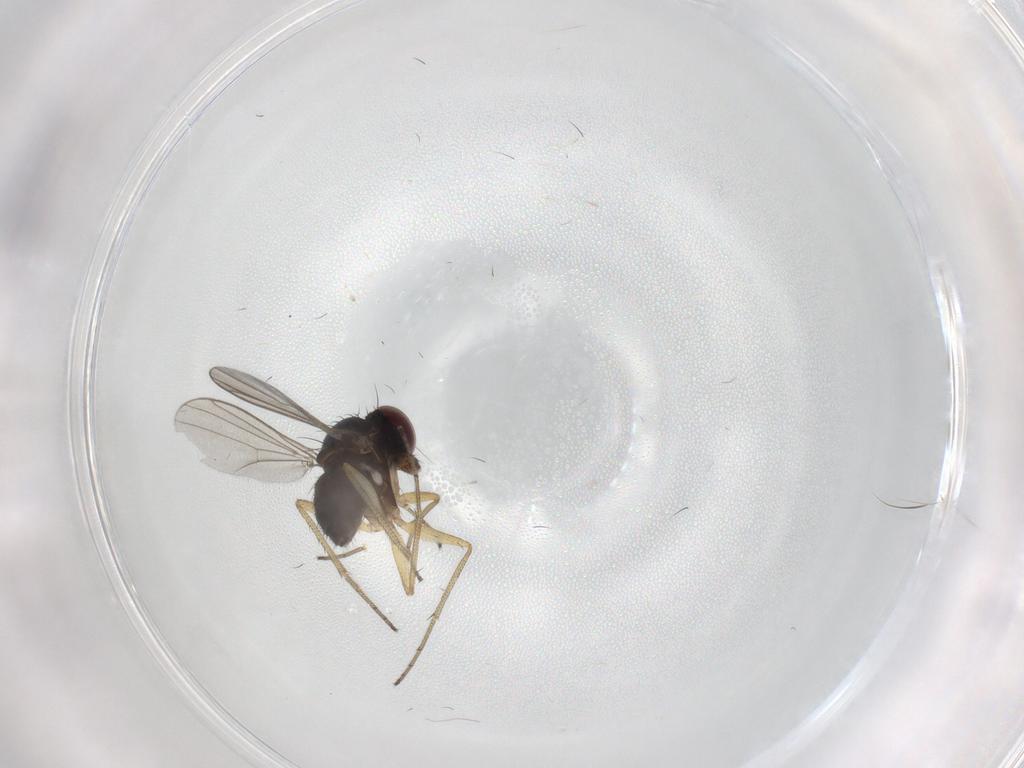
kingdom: Animalia
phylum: Arthropoda
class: Insecta
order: Diptera
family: Dolichopodidae
